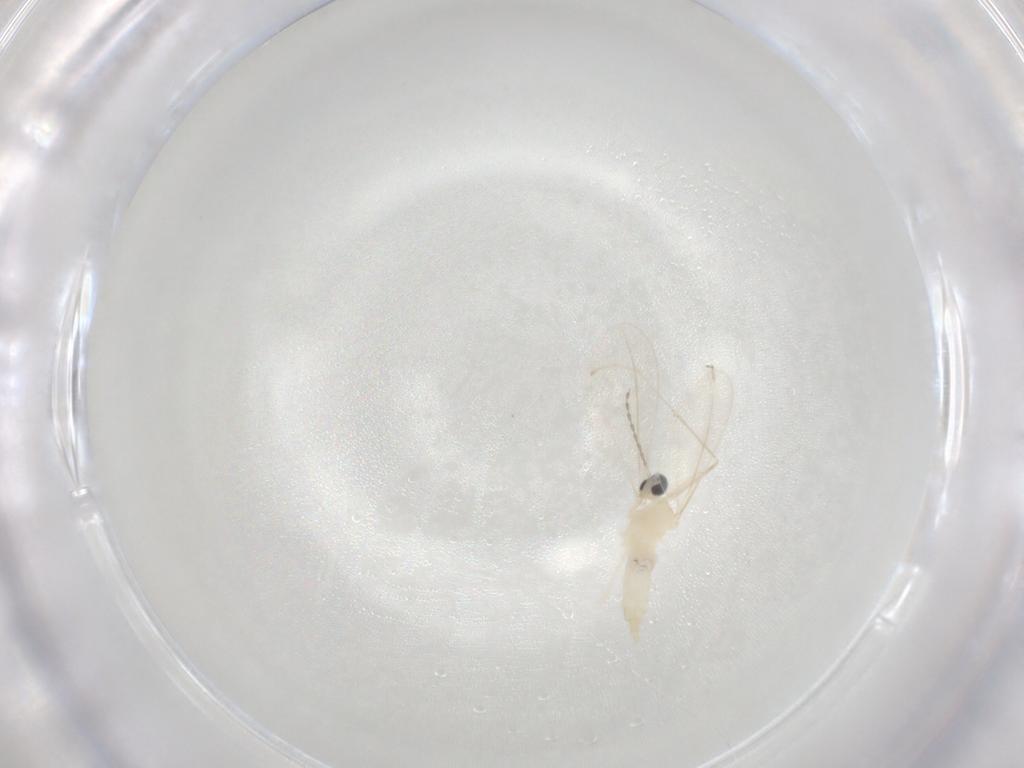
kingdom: Animalia
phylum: Arthropoda
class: Insecta
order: Diptera
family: Cecidomyiidae
